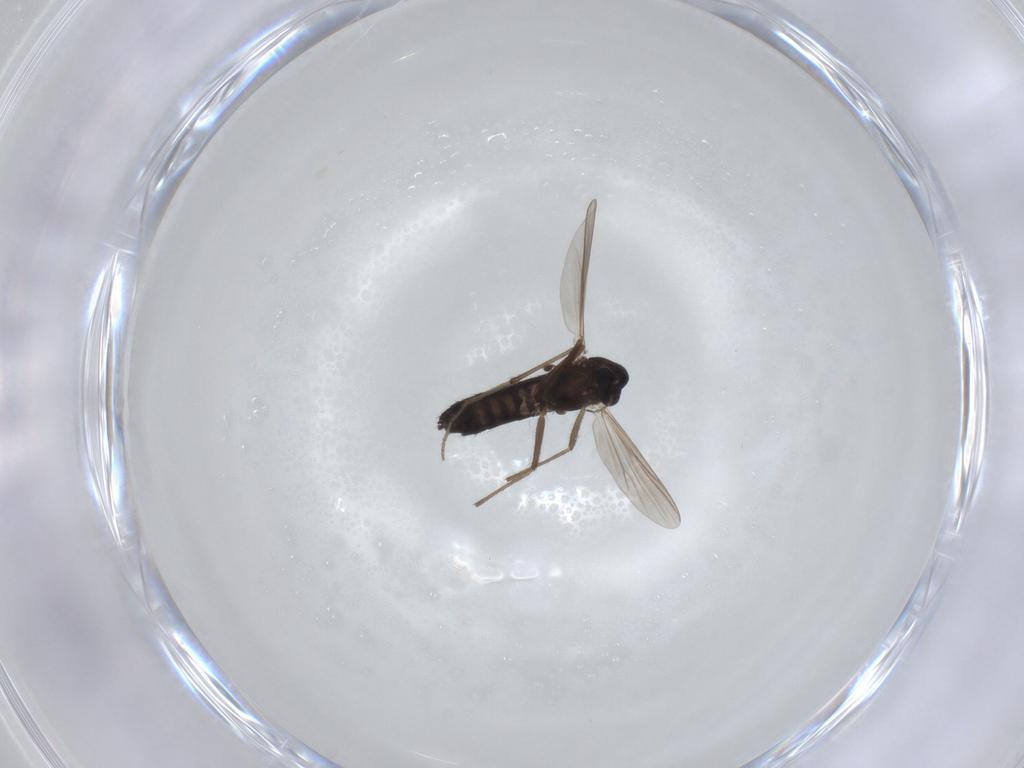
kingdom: Animalia
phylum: Arthropoda
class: Insecta
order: Diptera
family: Chironomidae
